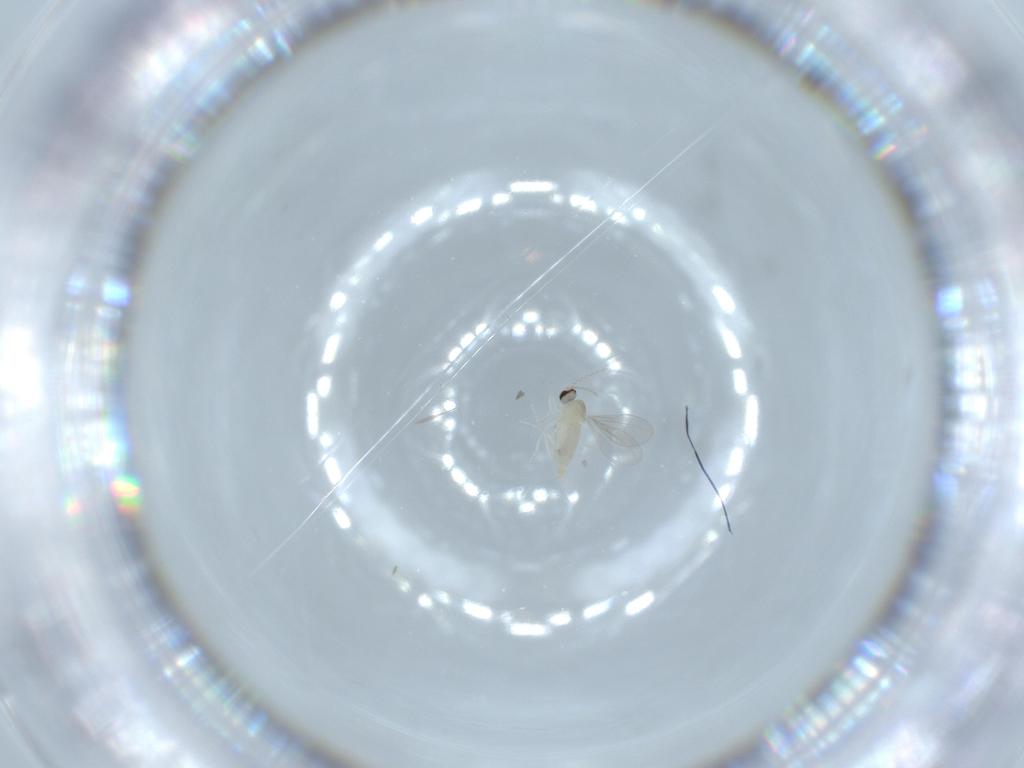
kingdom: Animalia
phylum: Arthropoda
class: Insecta
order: Diptera
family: Cecidomyiidae
